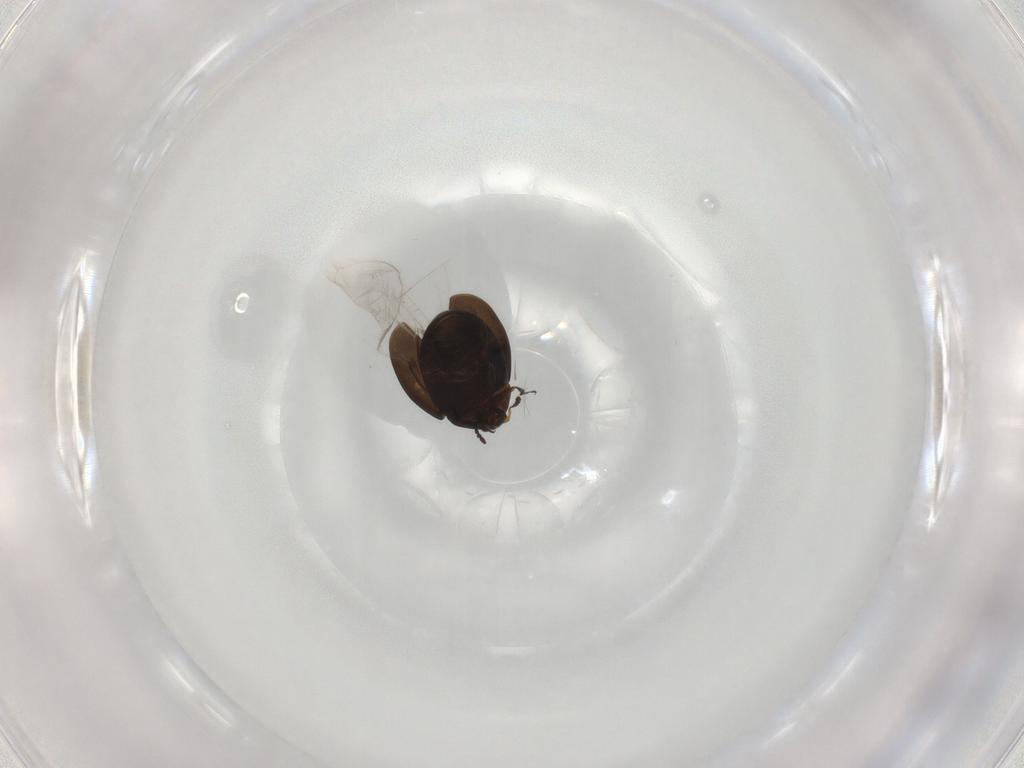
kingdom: Animalia
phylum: Arthropoda
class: Insecta
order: Coleoptera
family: Corylophidae
